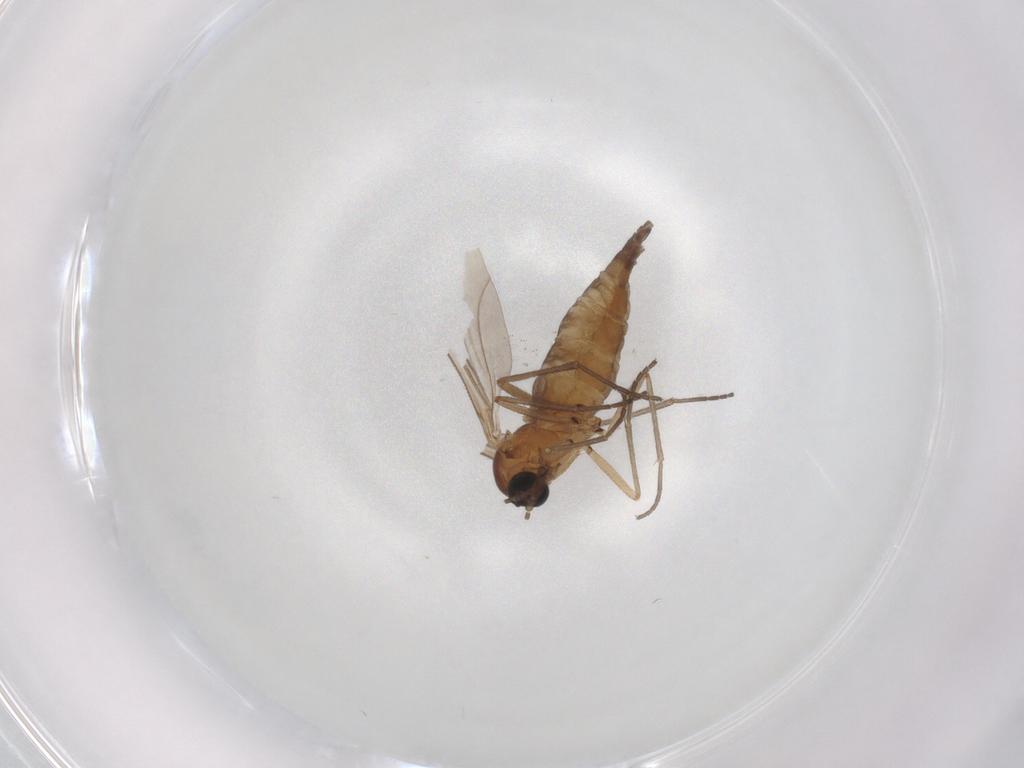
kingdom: Animalia
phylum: Arthropoda
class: Insecta
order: Diptera
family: Sciaridae
